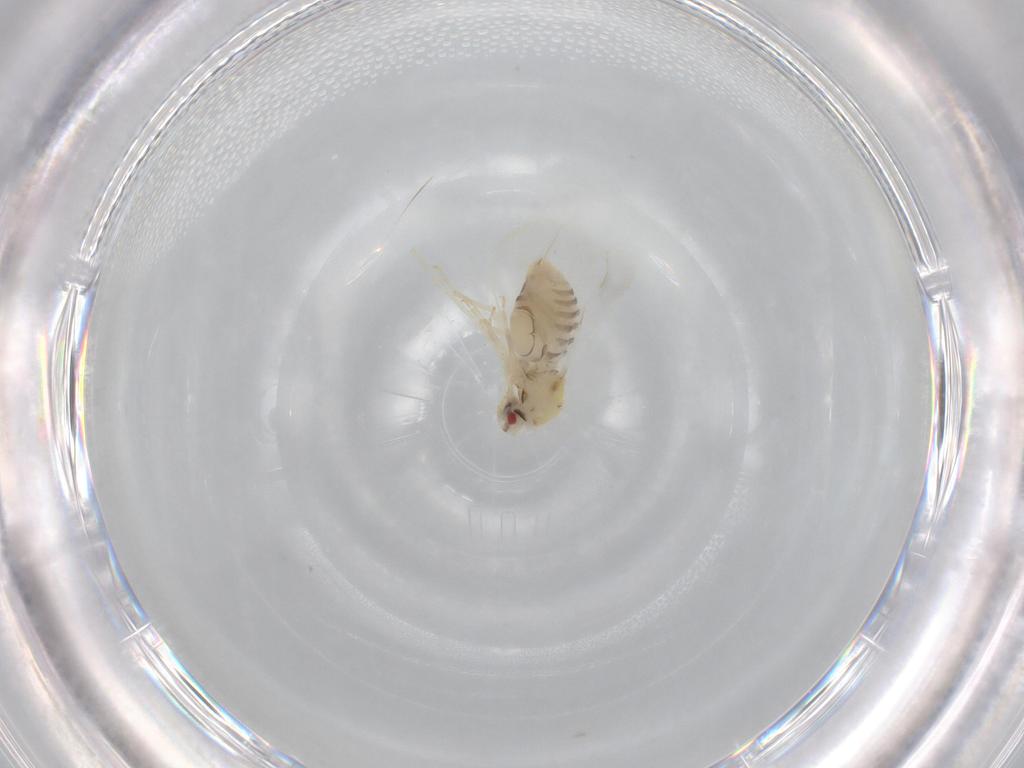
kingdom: Animalia
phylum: Arthropoda
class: Insecta
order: Hemiptera
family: Aleyrodidae
